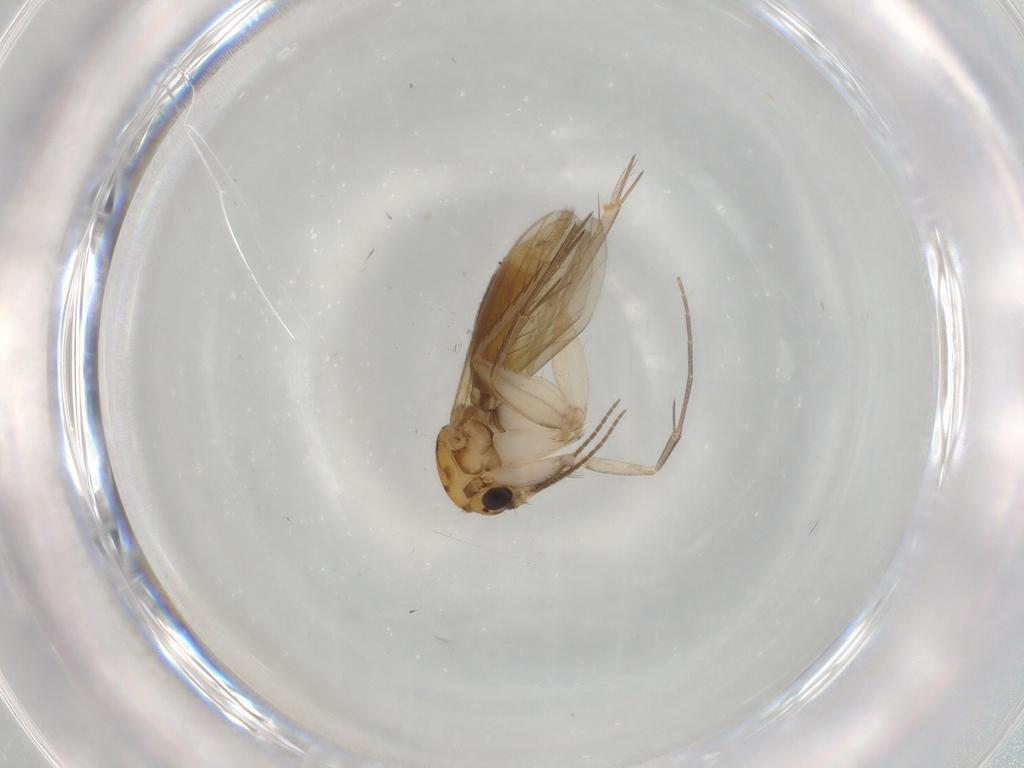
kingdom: Animalia
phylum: Arthropoda
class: Insecta
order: Diptera
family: Mycetophilidae
